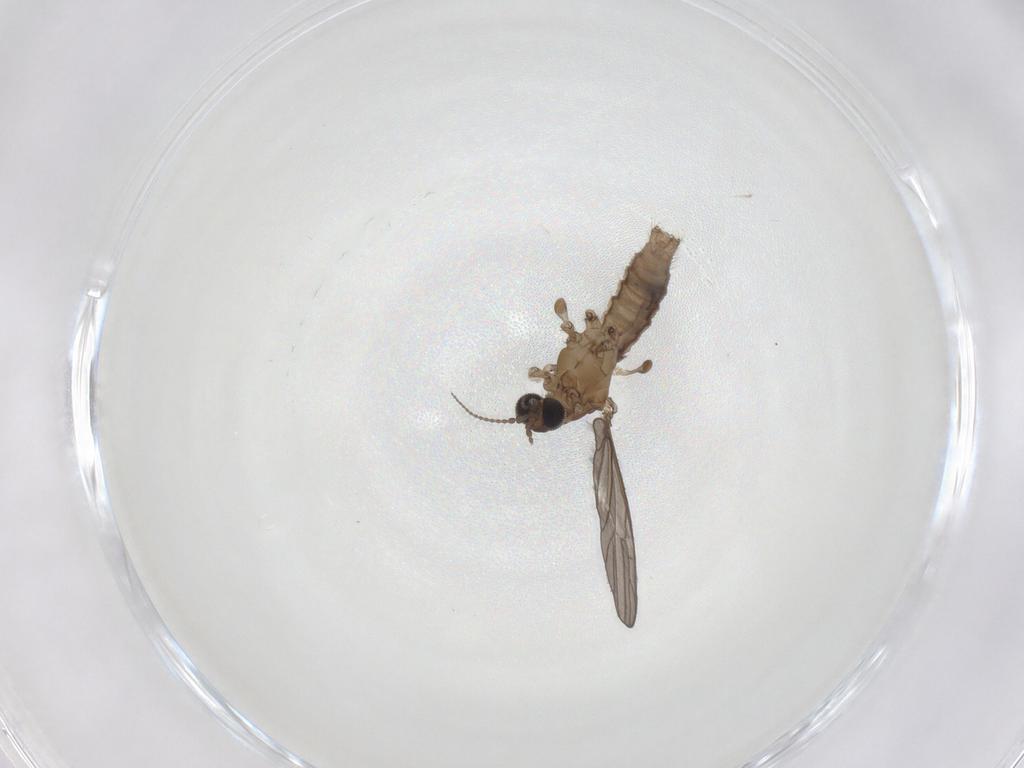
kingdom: Animalia
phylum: Arthropoda
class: Insecta
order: Diptera
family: Limoniidae
